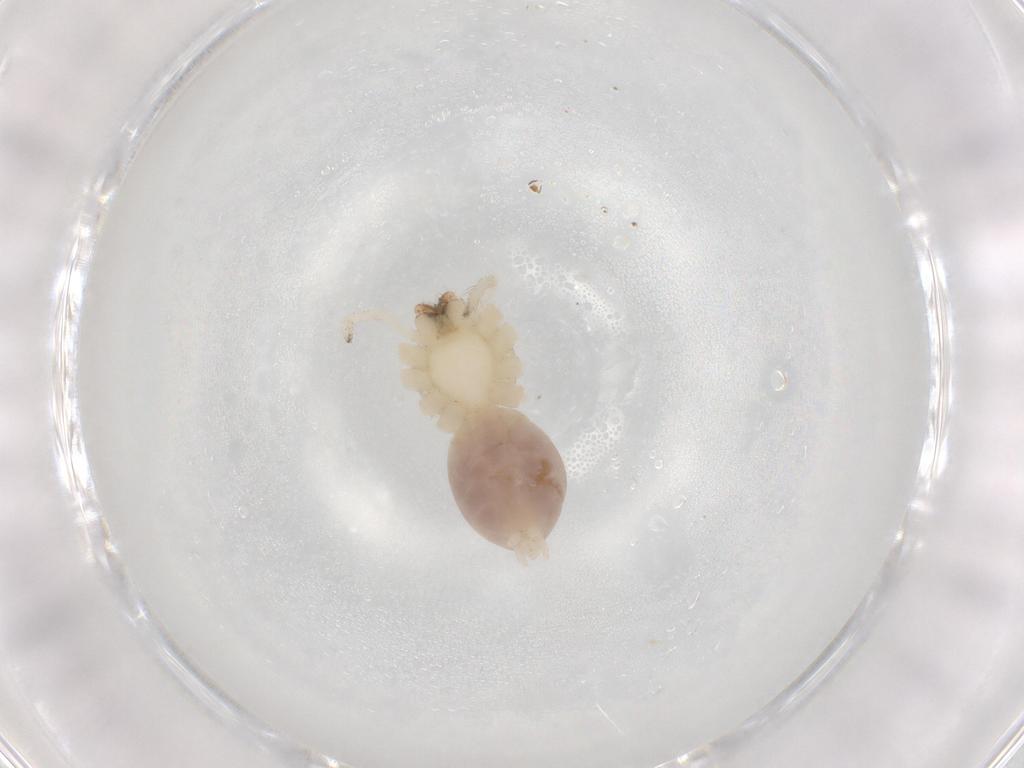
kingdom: Animalia
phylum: Arthropoda
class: Arachnida
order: Araneae
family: Anyphaenidae
